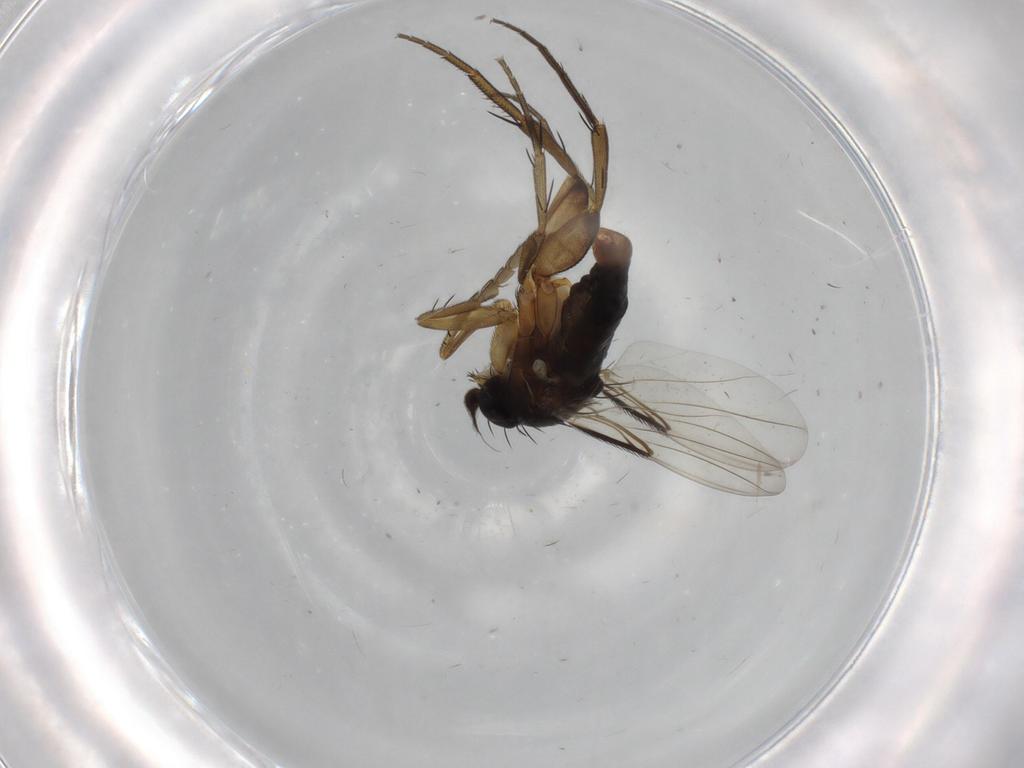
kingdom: Animalia
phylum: Arthropoda
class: Insecta
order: Diptera
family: Phoridae
